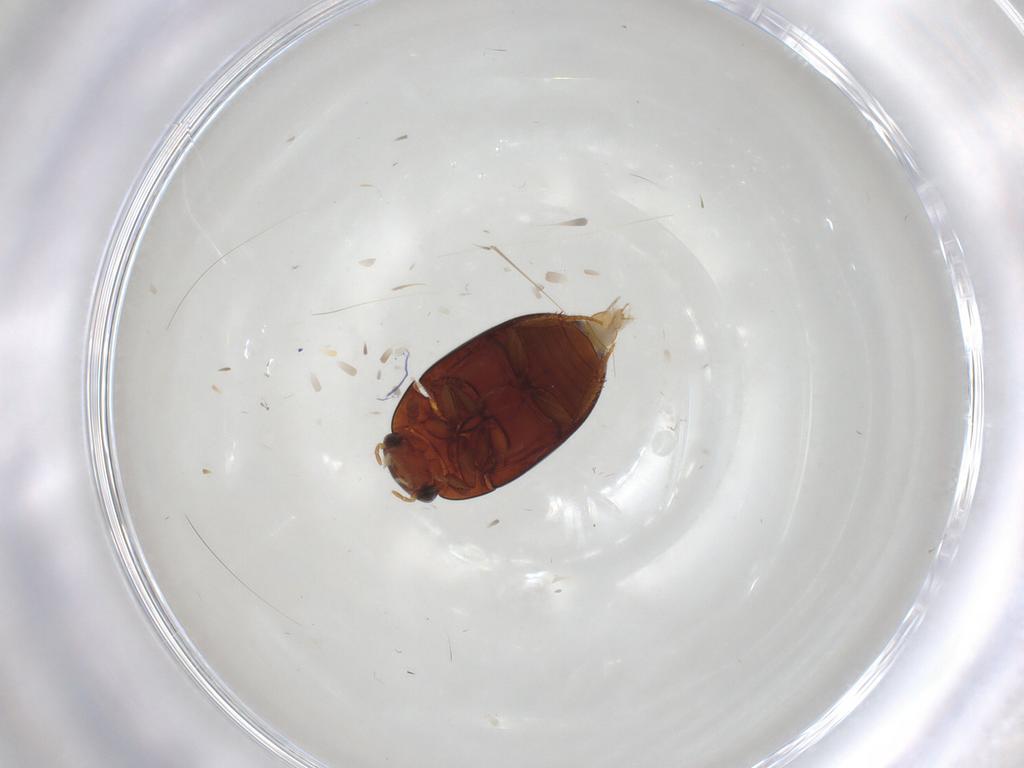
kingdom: Animalia
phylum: Arthropoda
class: Insecta
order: Coleoptera
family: Hydrophilidae
